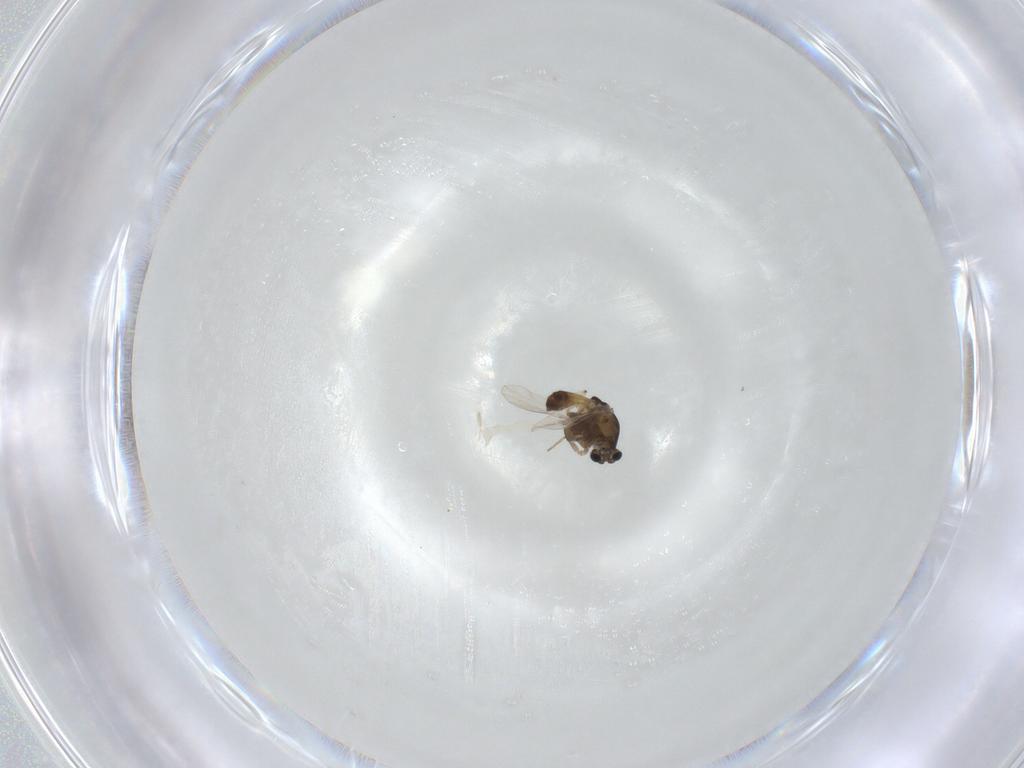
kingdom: Animalia
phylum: Arthropoda
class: Insecta
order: Diptera
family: Chironomidae
